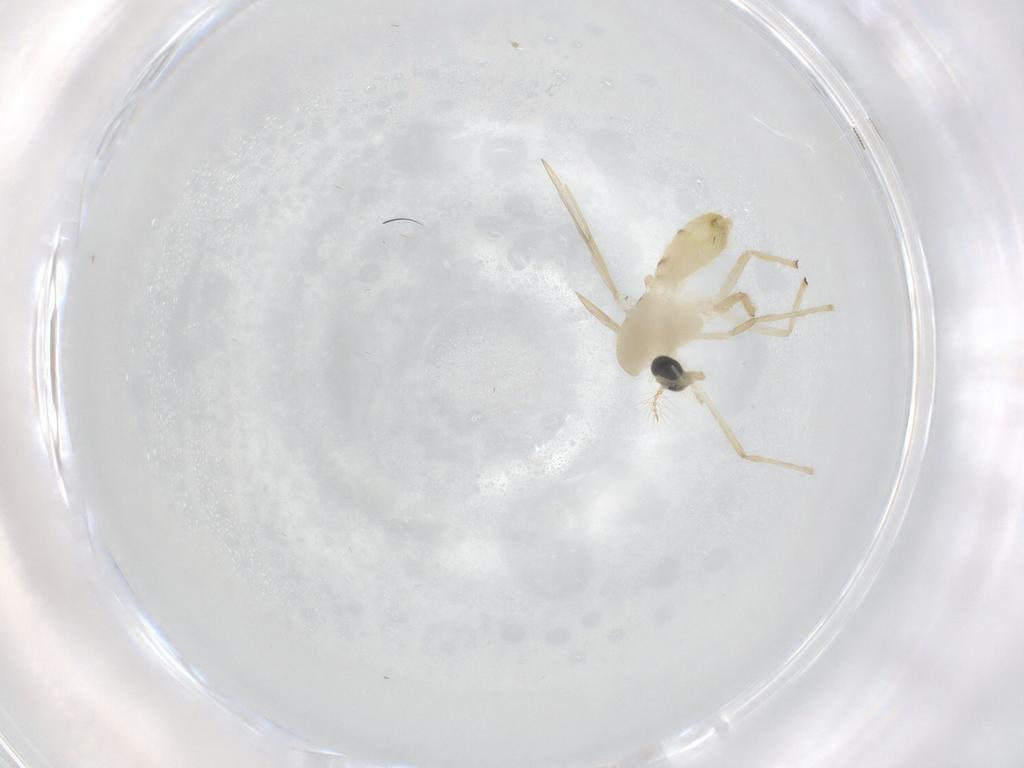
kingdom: Animalia
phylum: Arthropoda
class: Insecta
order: Diptera
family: Chironomidae
